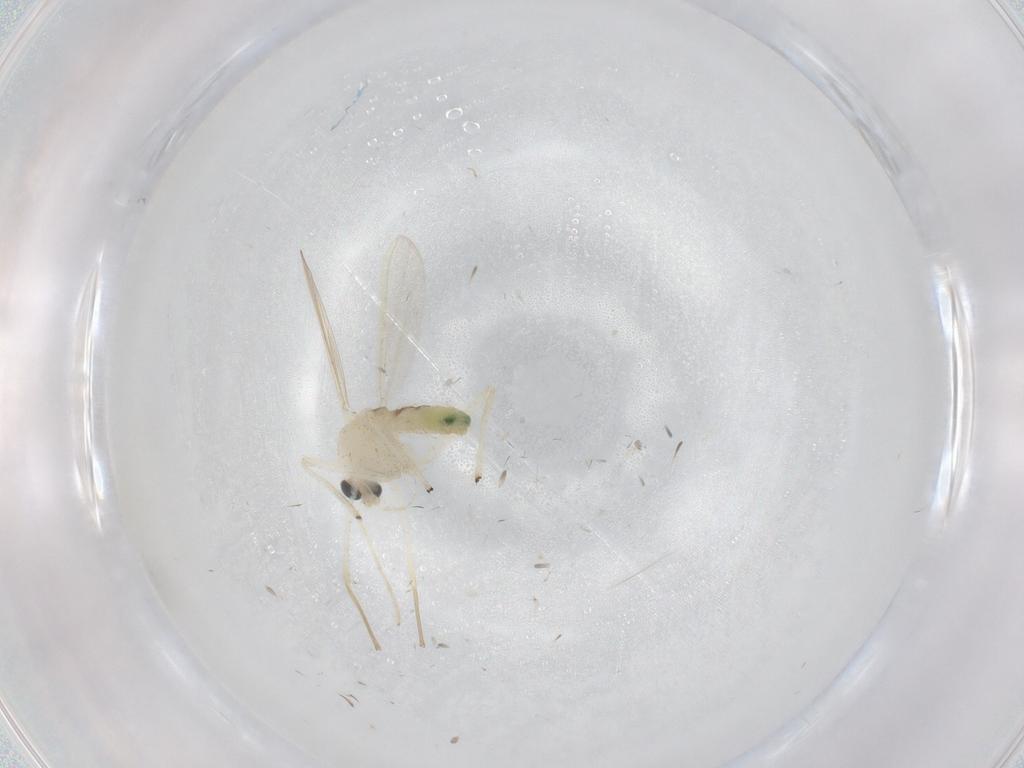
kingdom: Animalia
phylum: Arthropoda
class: Insecta
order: Diptera
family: Chironomidae
